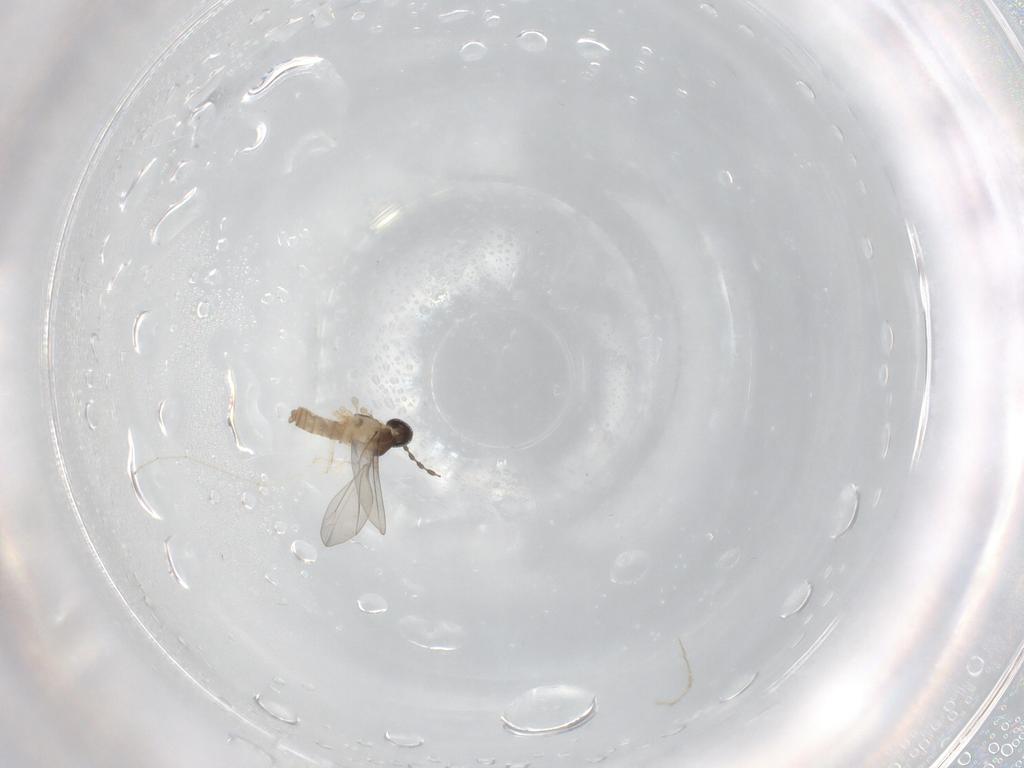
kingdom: Animalia
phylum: Arthropoda
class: Insecta
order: Diptera
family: Cecidomyiidae
